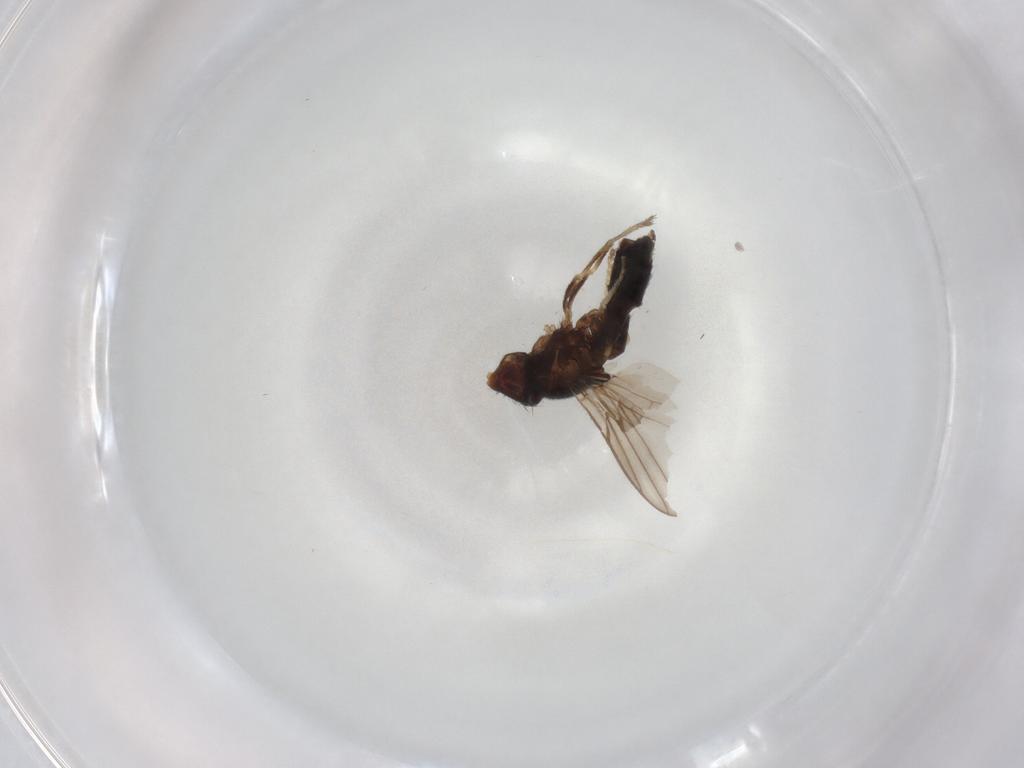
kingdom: Animalia
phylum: Arthropoda
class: Insecta
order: Diptera
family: Chloropidae
